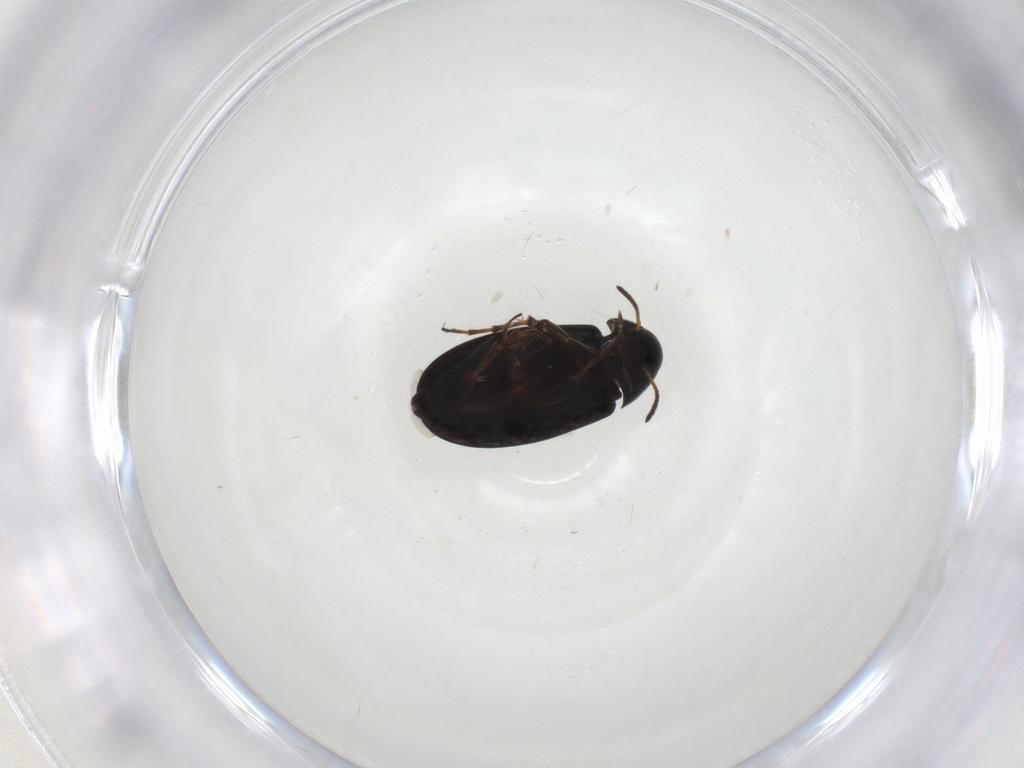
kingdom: Animalia
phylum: Arthropoda
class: Insecta
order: Coleoptera
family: Scraptiidae
